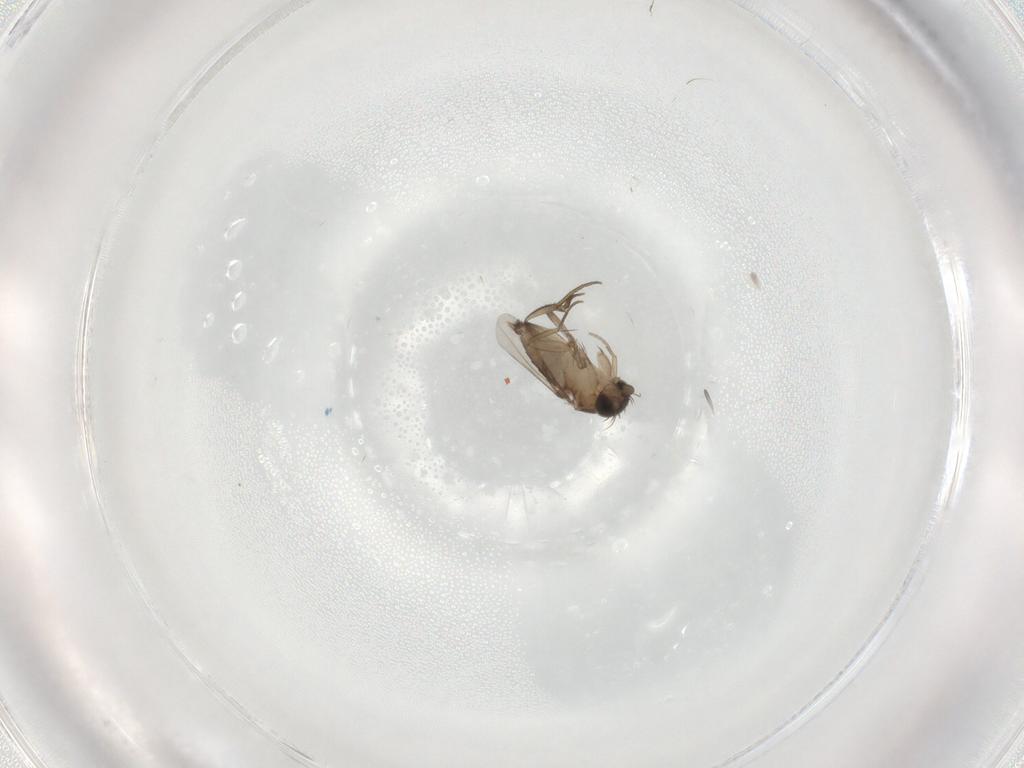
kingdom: Animalia
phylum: Arthropoda
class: Insecta
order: Diptera
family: Phoridae
